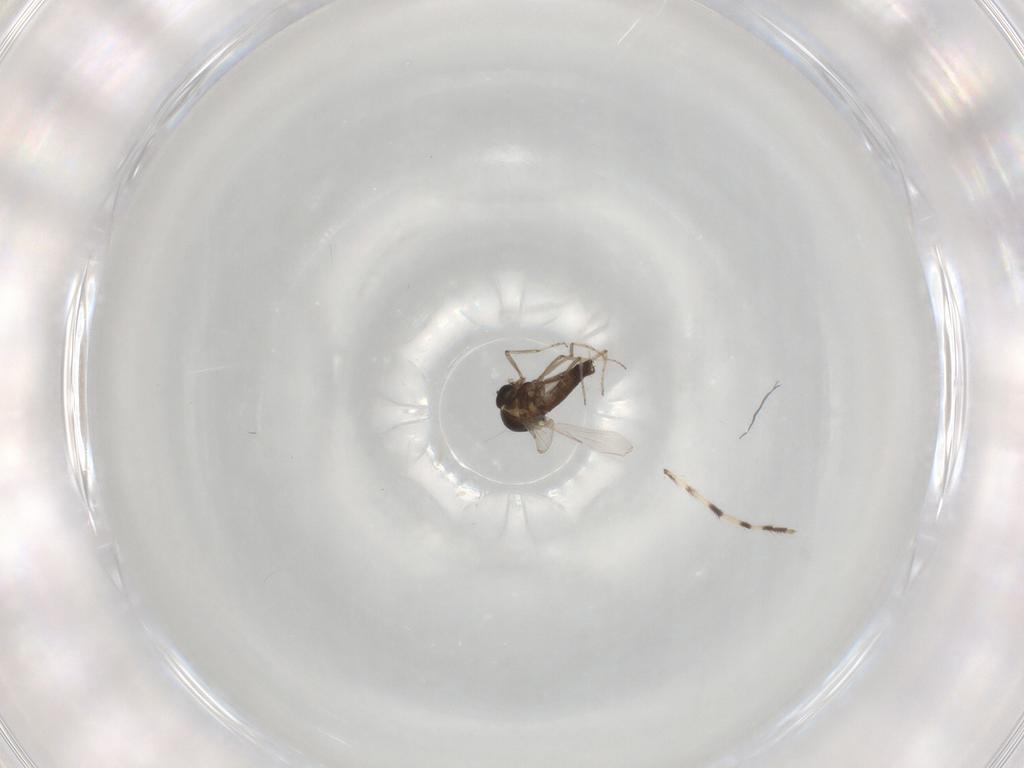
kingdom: Animalia
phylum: Arthropoda
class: Insecta
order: Diptera
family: Ceratopogonidae
